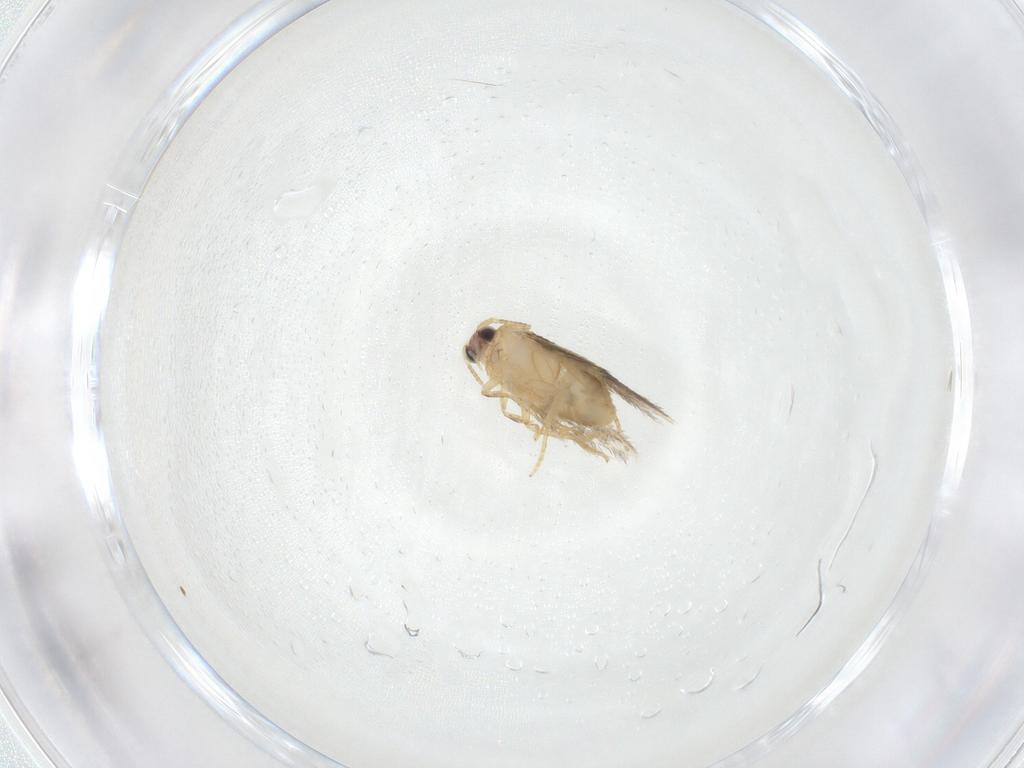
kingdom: Animalia
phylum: Arthropoda
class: Insecta
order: Lepidoptera
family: Nepticulidae
